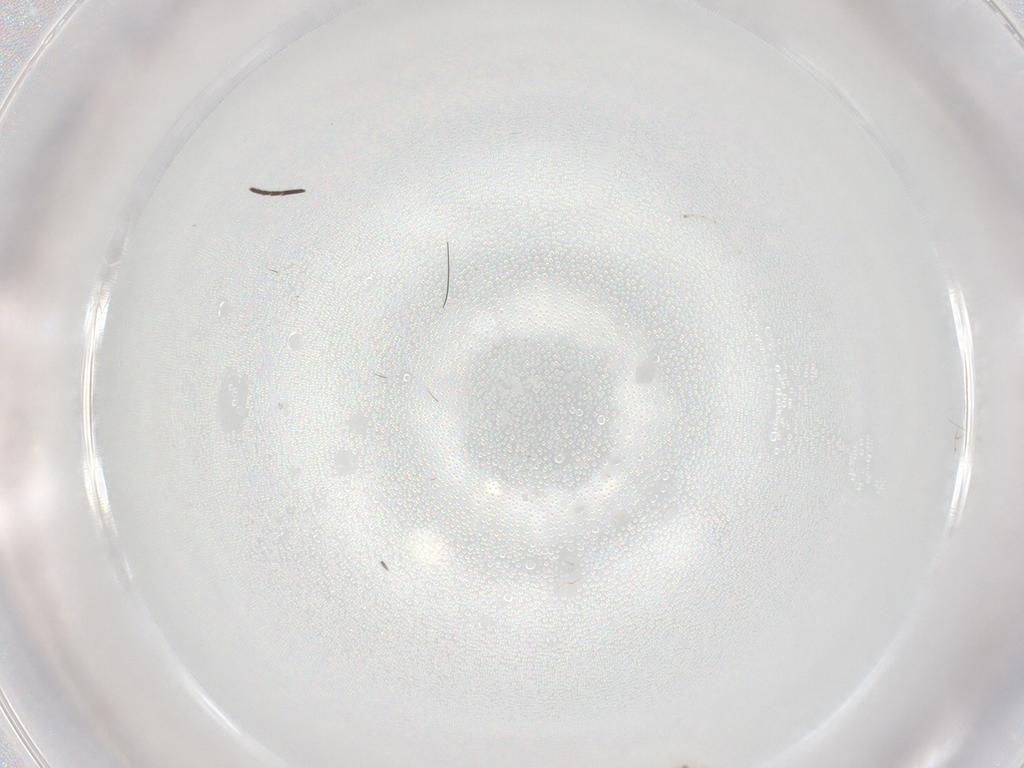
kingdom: Animalia
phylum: Arthropoda
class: Insecta
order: Diptera
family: Sciaridae
